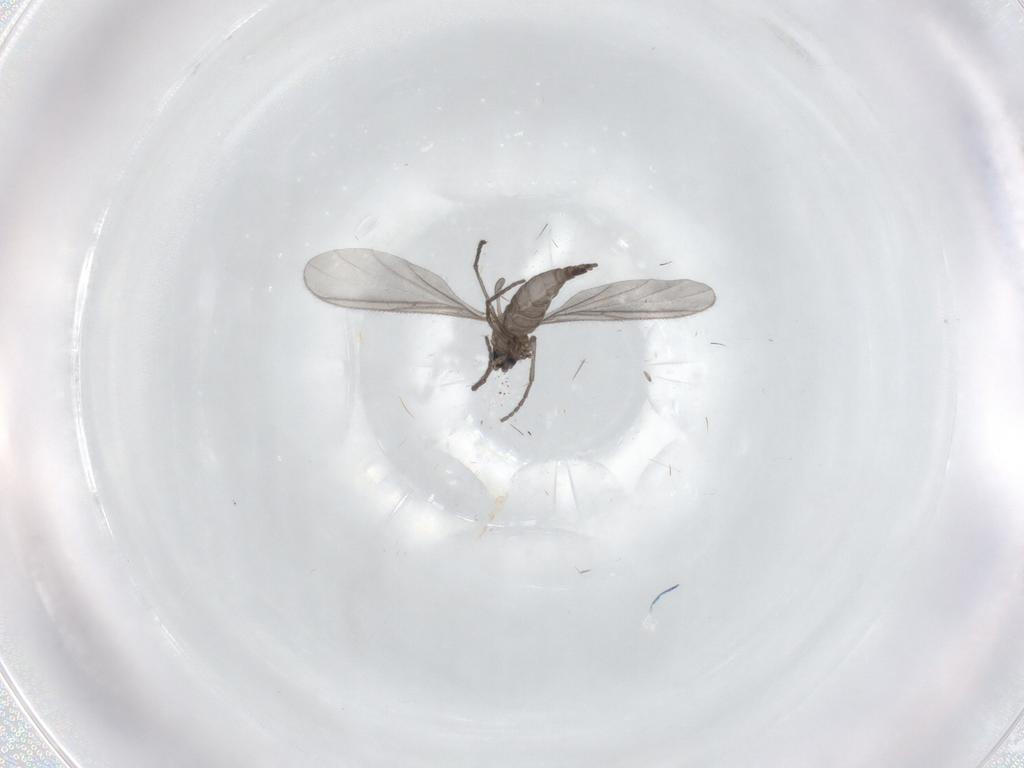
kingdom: Animalia
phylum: Arthropoda
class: Insecta
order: Diptera
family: Sciaridae
